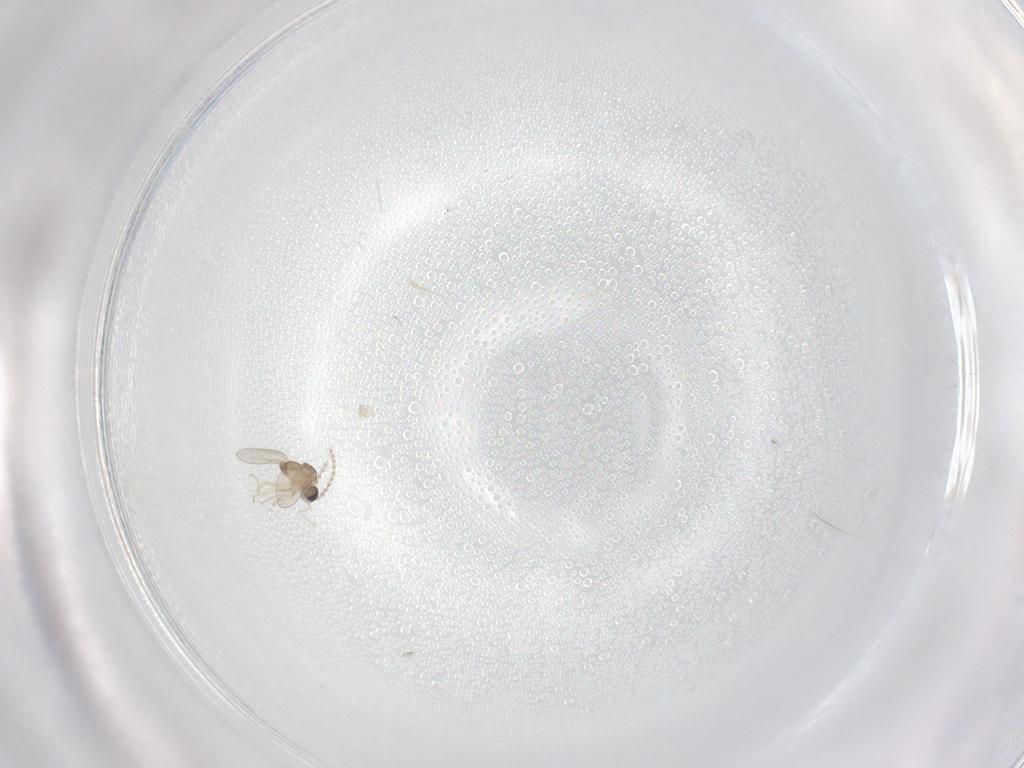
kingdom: Animalia
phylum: Arthropoda
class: Insecta
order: Diptera
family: Cecidomyiidae
